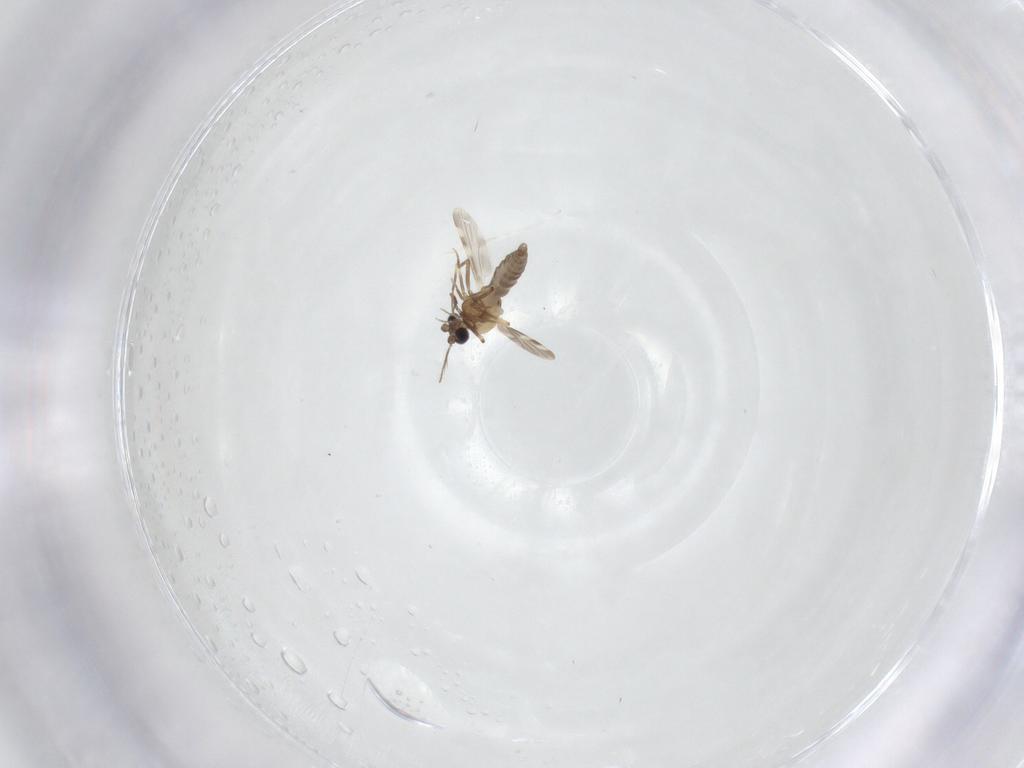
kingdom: Animalia
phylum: Arthropoda
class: Insecta
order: Diptera
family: Ceratopogonidae
